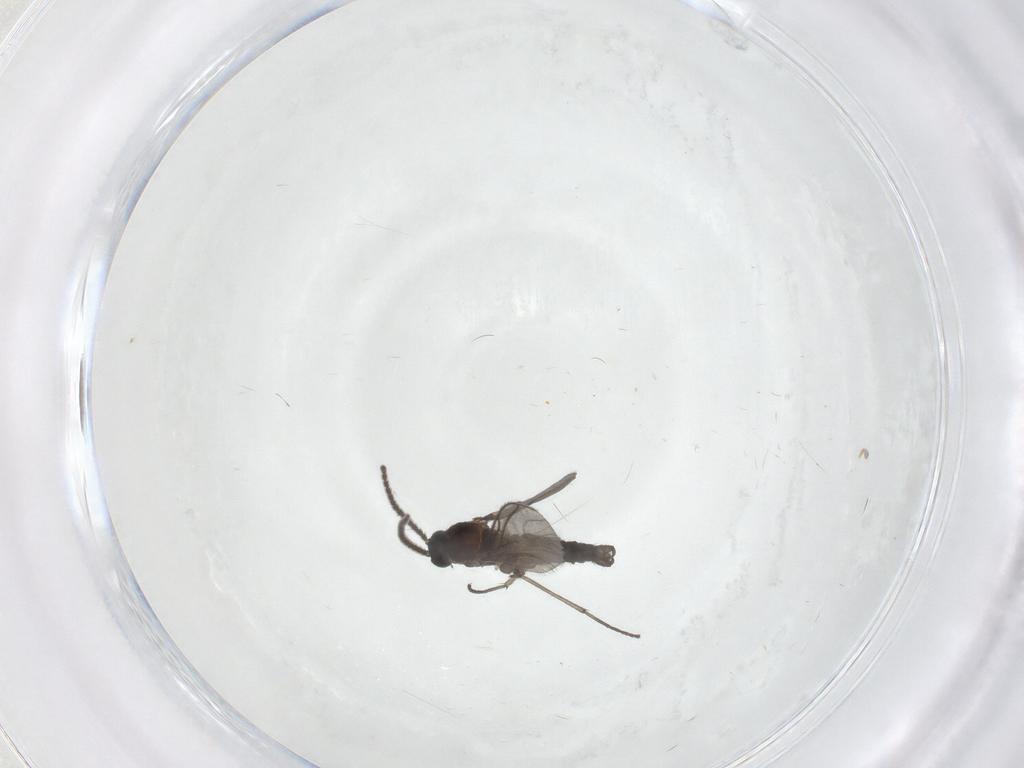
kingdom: Animalia
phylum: Arthropoda
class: Insecta
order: Diptera
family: Sciaridae
